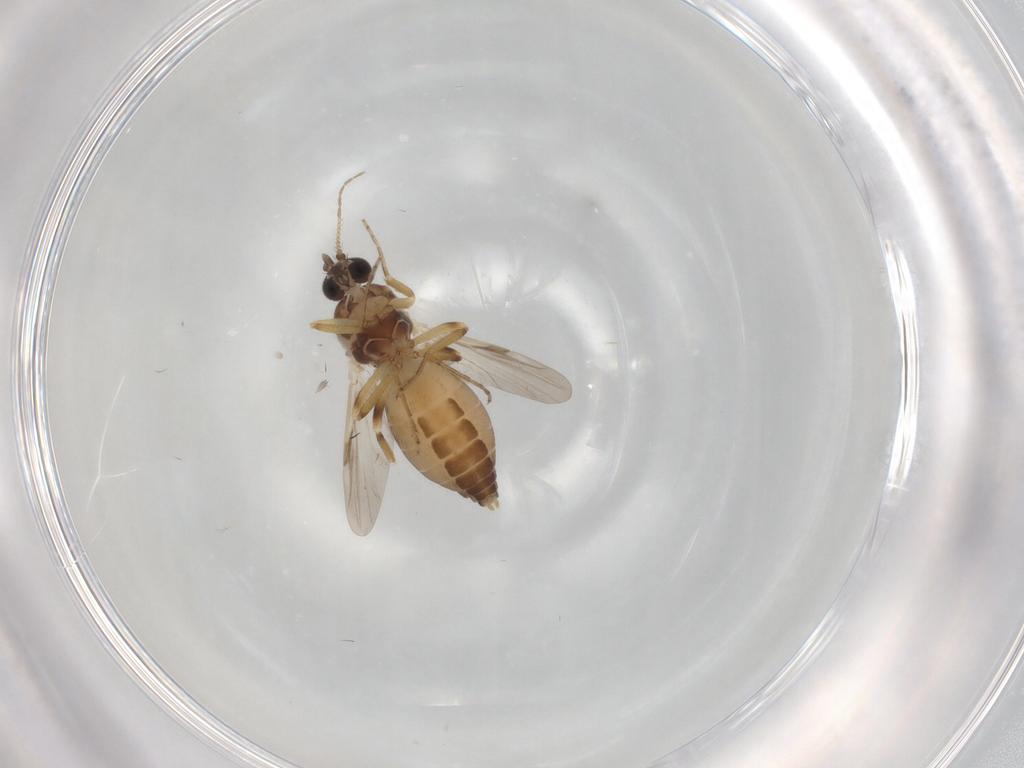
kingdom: Animalia
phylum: Arthropoda
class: Insecta
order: Diptera
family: Ceratopogonidae
